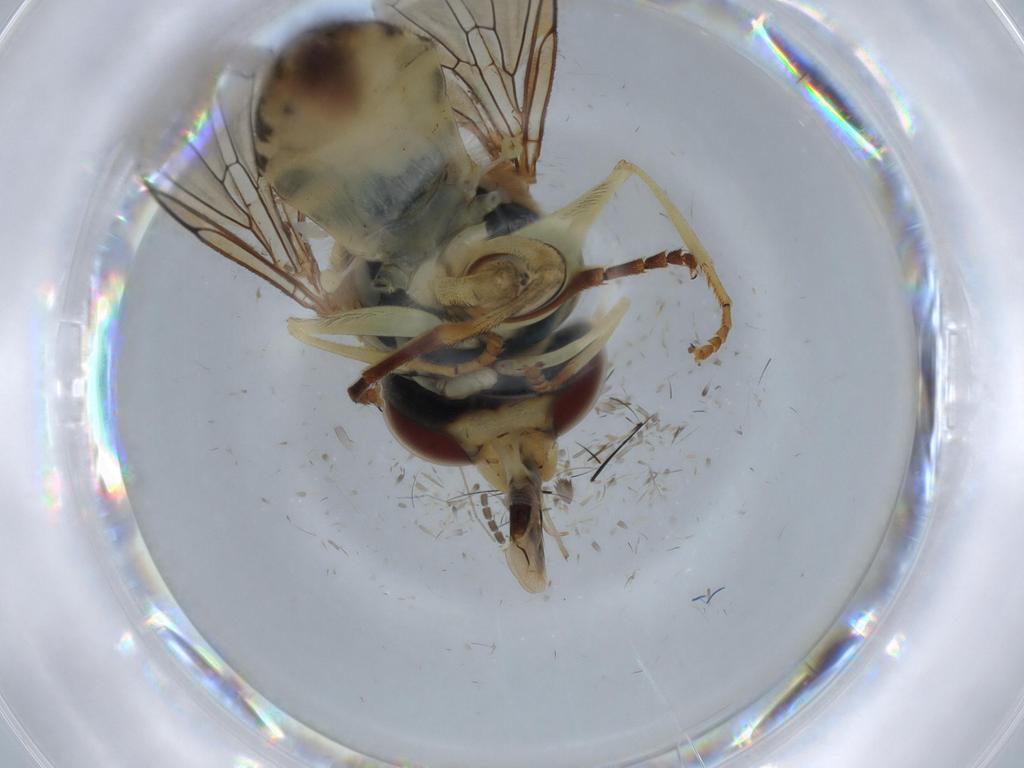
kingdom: Animalia
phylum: Arthropoda
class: Insecta
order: Diptera
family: Syrphidae
